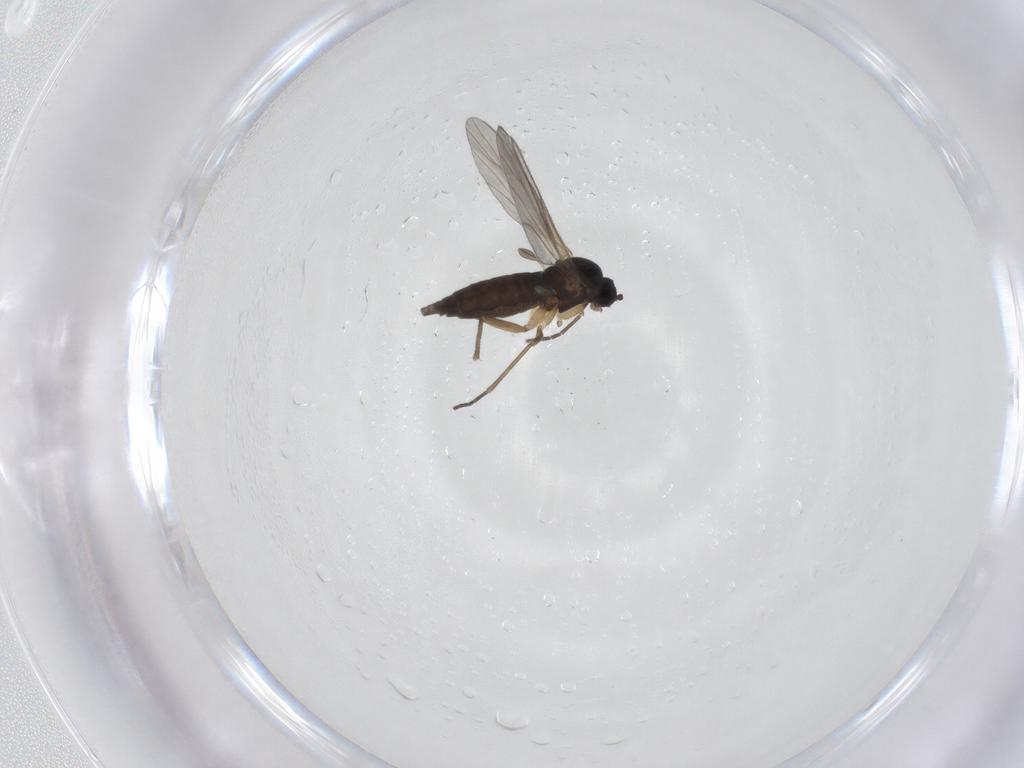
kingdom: Animalia
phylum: Arthropoda
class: Insecta
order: Diptera
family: Sciaridae
